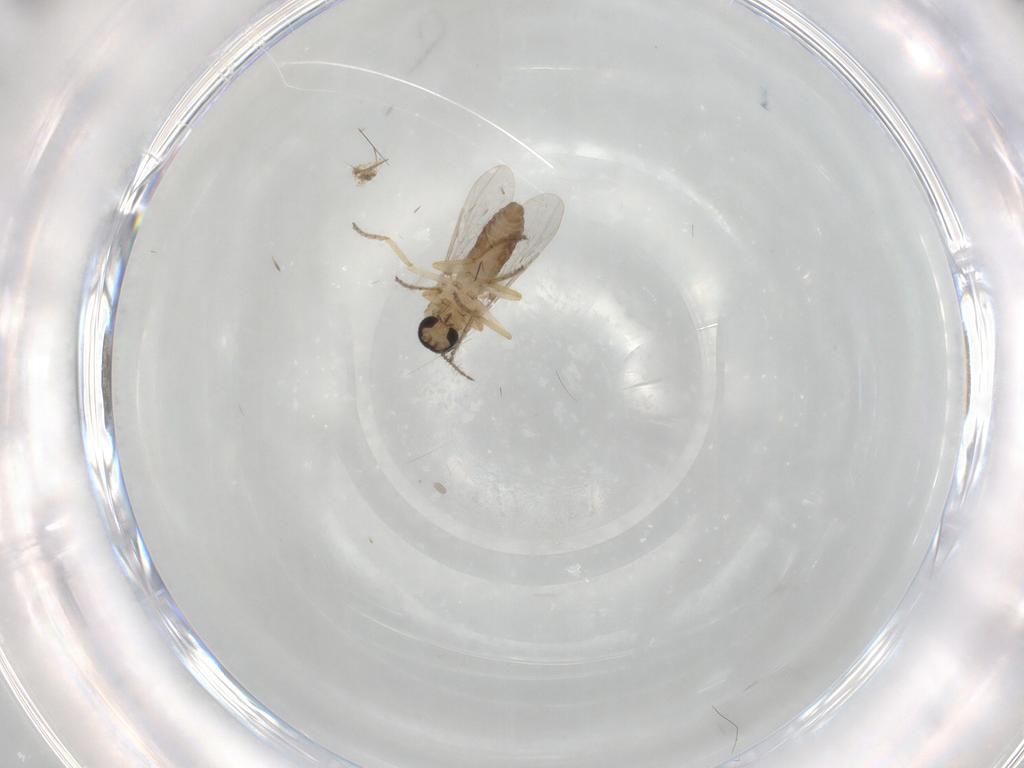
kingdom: Animalia
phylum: Arthropoda
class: Insecta
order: Diptera
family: Ceratopogonidae
